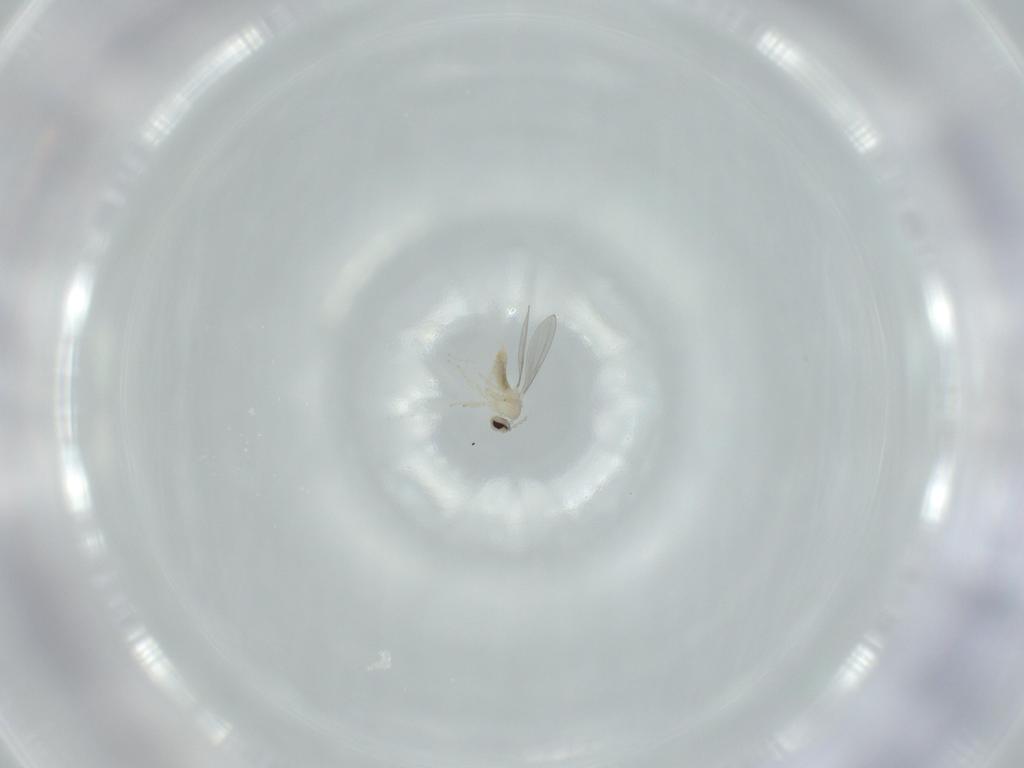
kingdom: Animalia
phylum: Arthropoda
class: Insecta
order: Diptera
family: Cecidomyiidae
